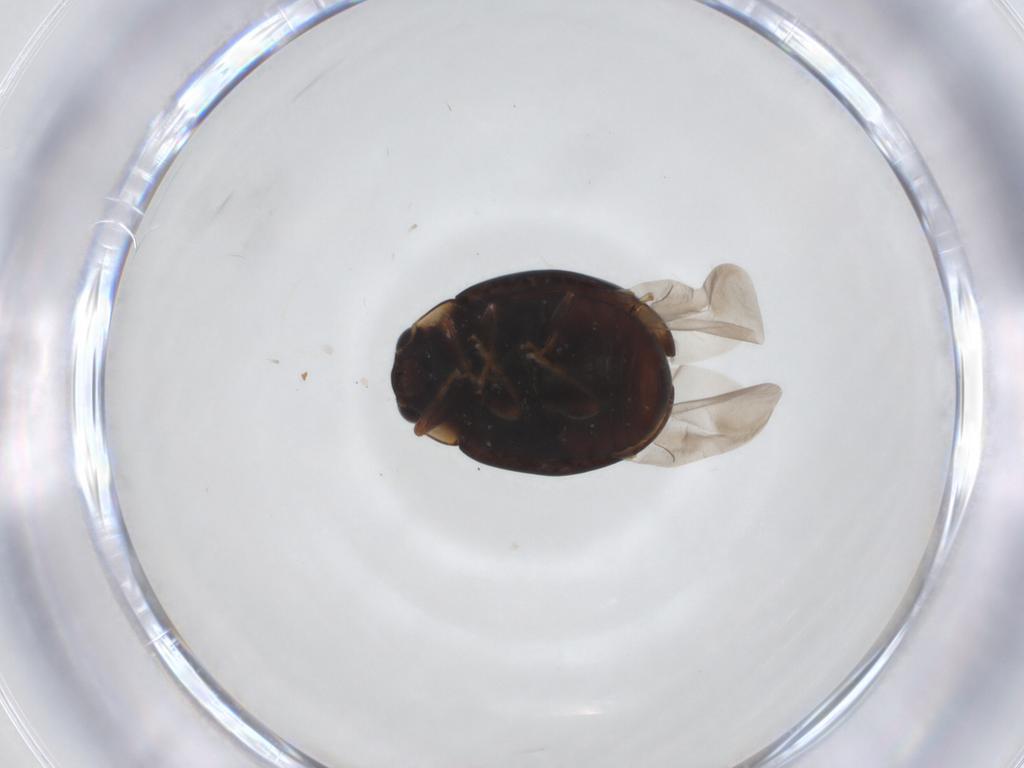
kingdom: Animalia
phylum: Arthropoda
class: Insecta
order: Coleoptera
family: Coccinellidae
